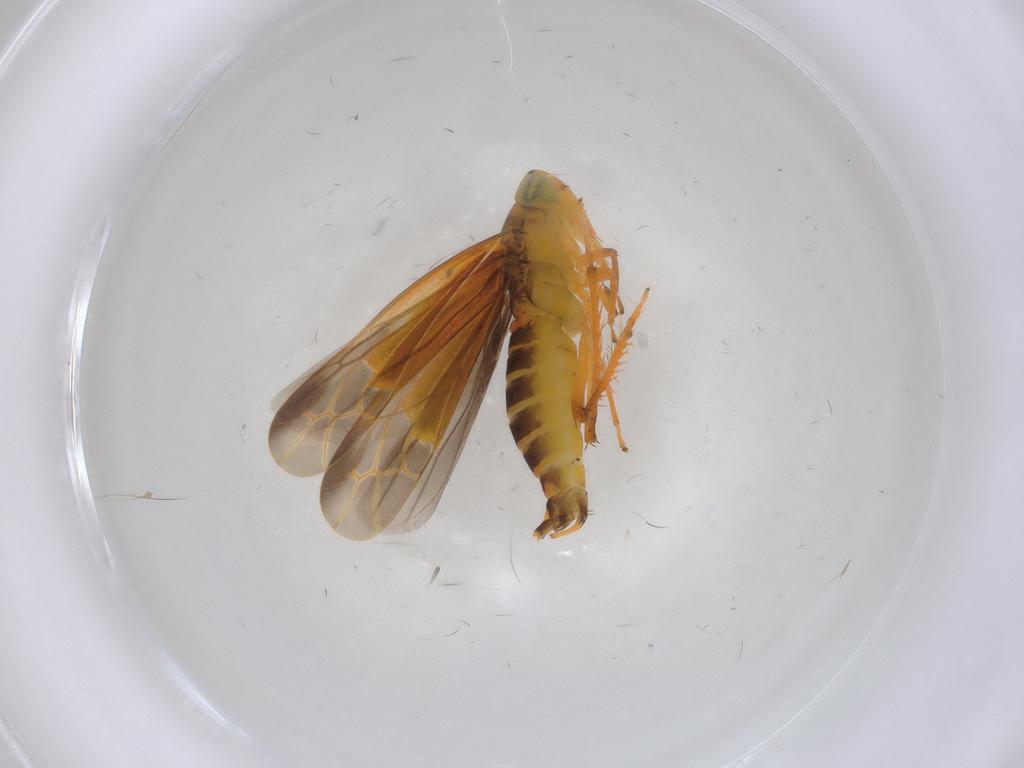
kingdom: Animalia
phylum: Arthropoda
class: Insecta
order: Hemiptera
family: Cicadellidae
